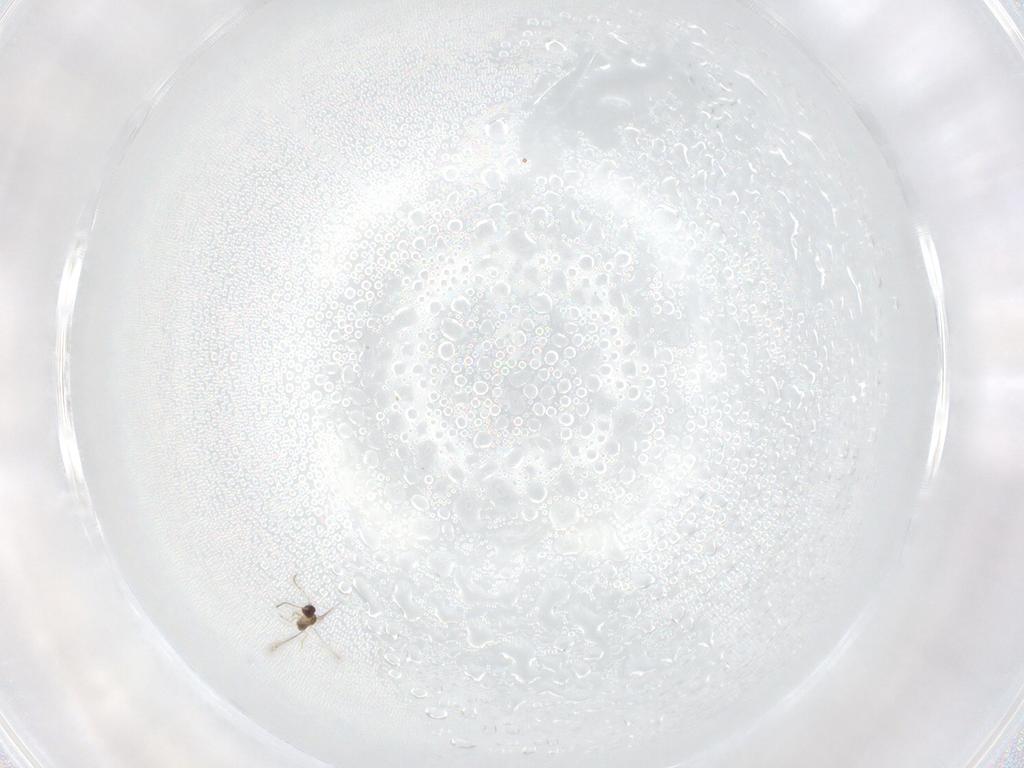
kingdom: Animalia
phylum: Arthropoda
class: Insecta
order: Hymenoptera
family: Mymaridae
